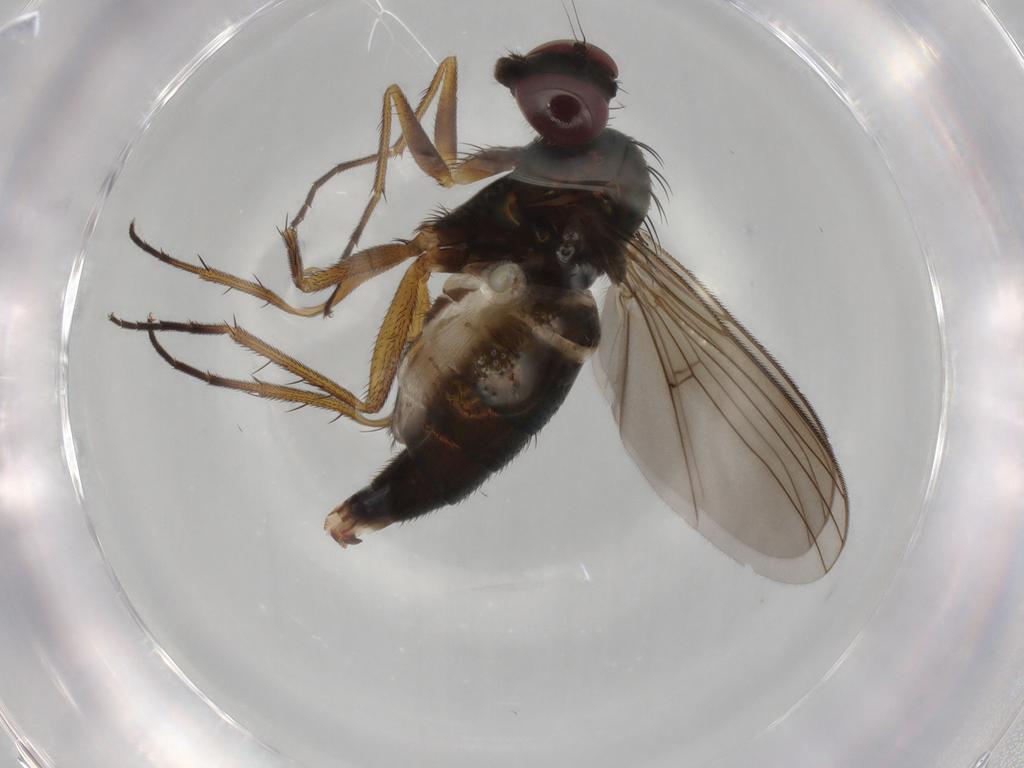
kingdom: Animalia
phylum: Arthropoda
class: Insecta
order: Diptera
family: Dolichopodidae
